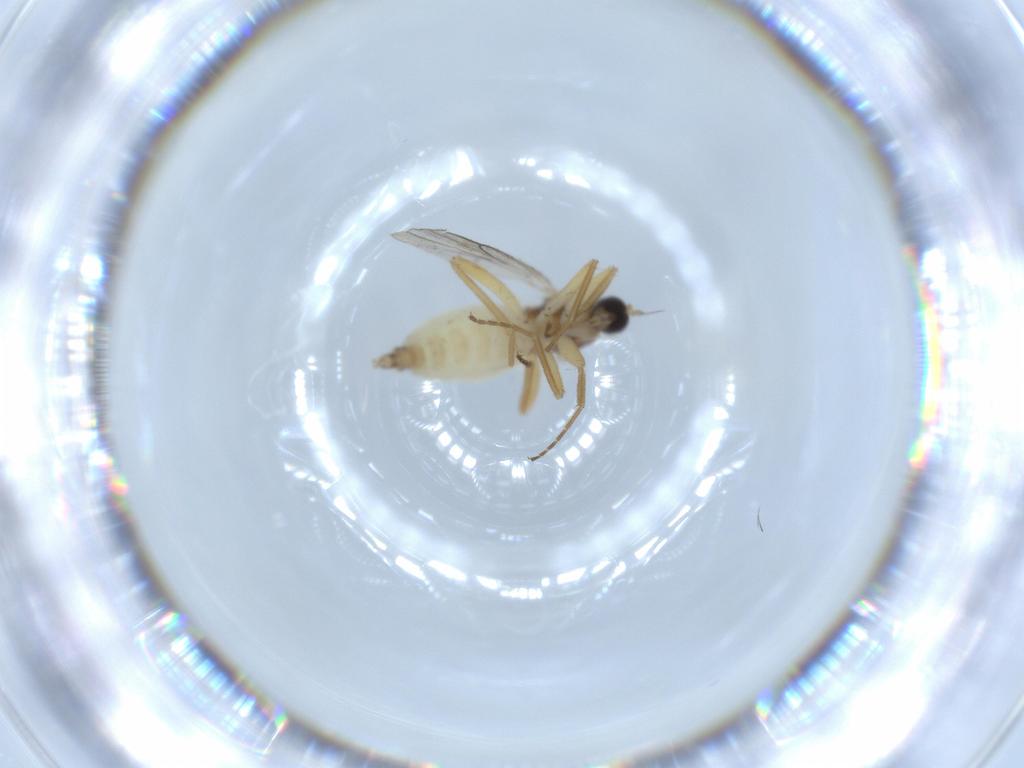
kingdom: Animalia
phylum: Arthropoda
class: Insecta
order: Diptera
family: Hybotidae
